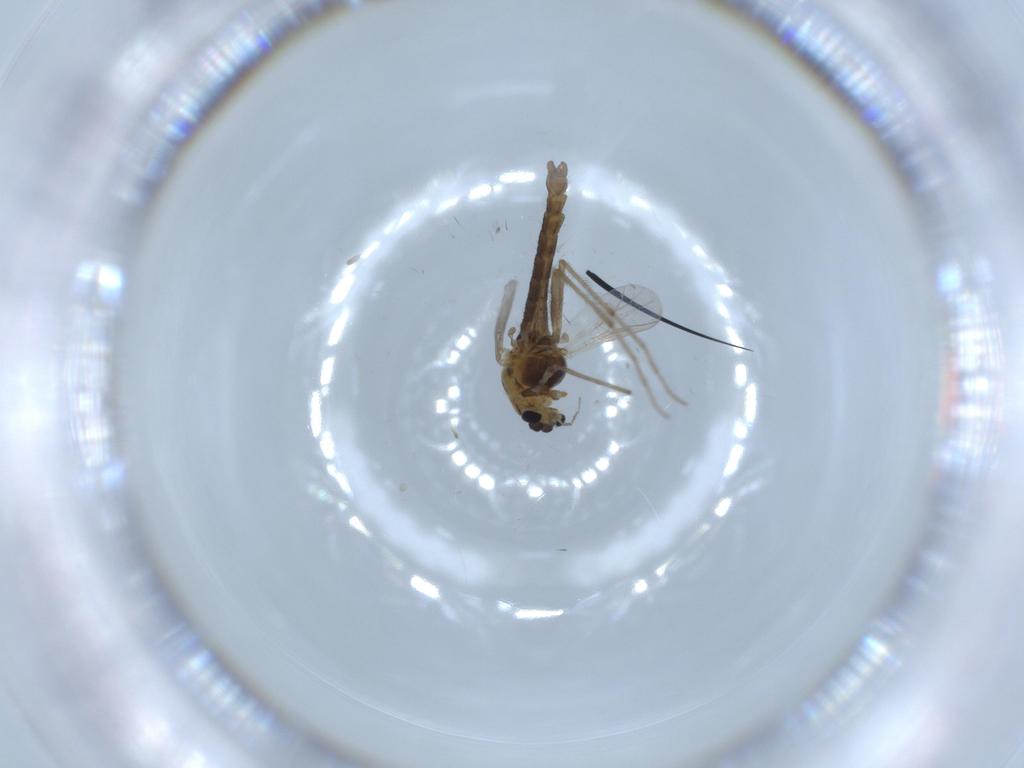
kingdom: Animalia
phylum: Arthropoda
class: Insecta
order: Diptera
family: Chironomidae
